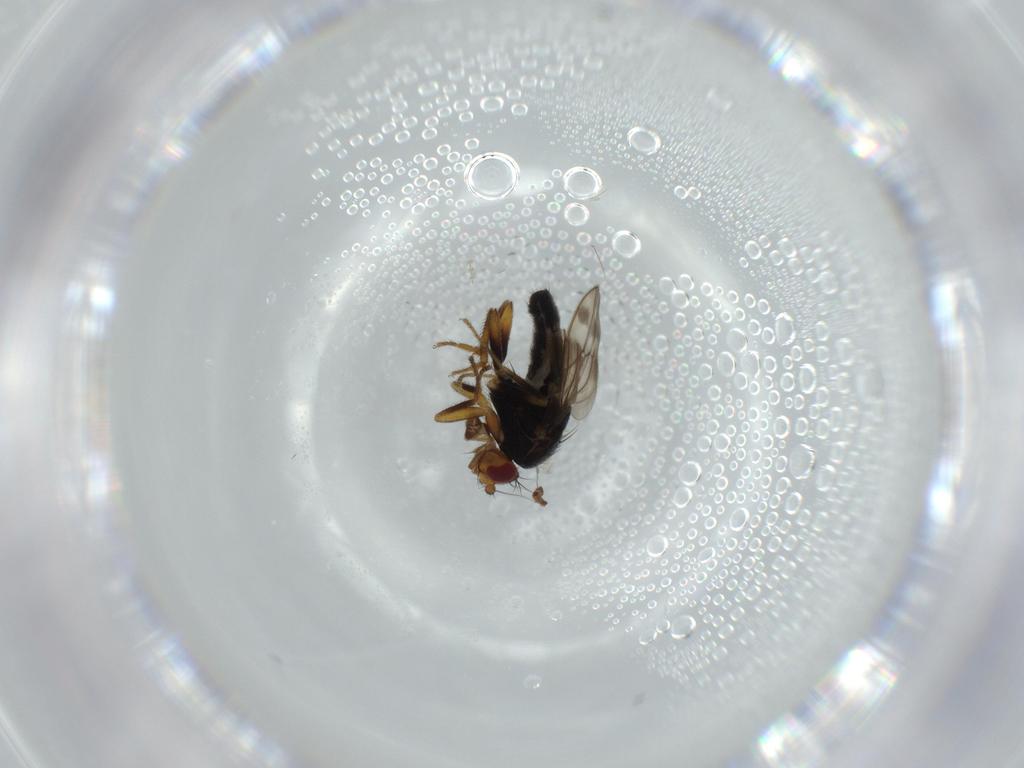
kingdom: Animalia
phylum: Arthropoda
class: Insecta
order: Diptera
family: Sphaeroceridae
